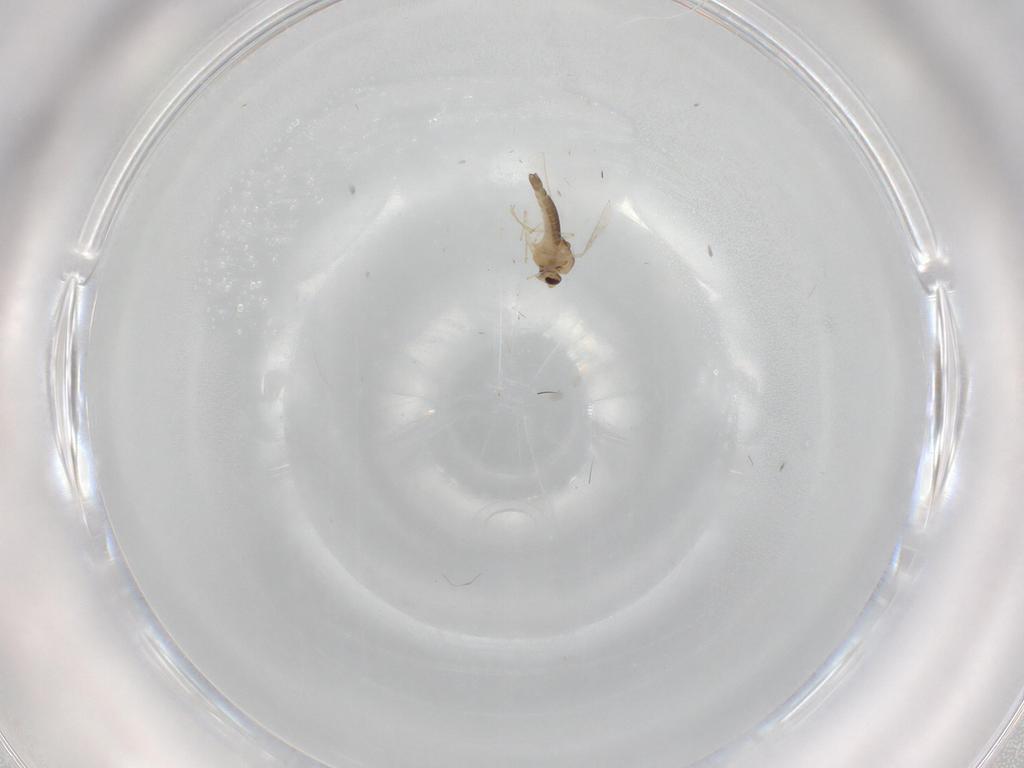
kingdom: Animalia
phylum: Arthropoda
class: Insecta
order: Diptera
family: Chironomidae
